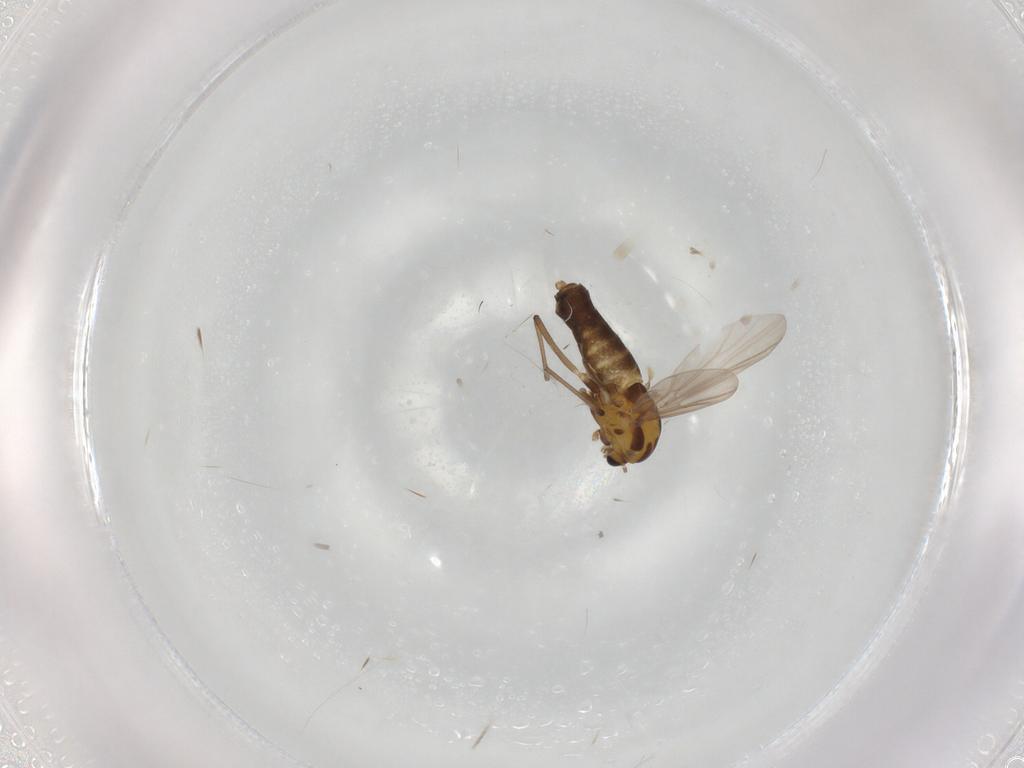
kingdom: Animalia
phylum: Arthropoda
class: Insecta
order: Diptera
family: Chironomidae
